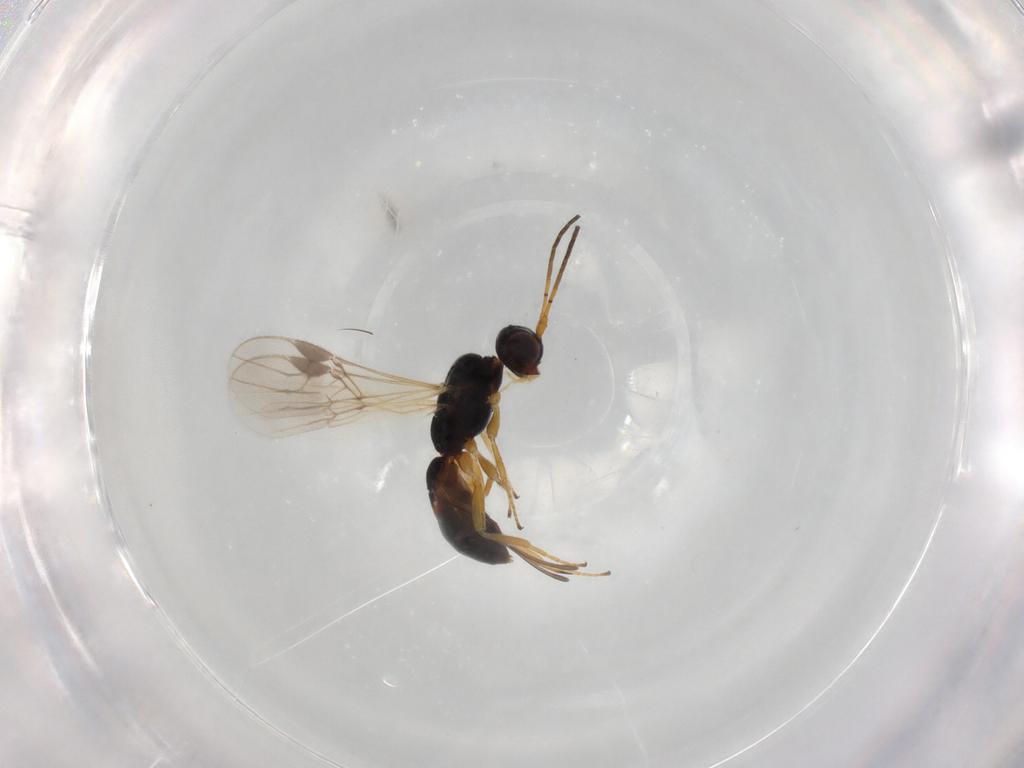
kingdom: Animalia
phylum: Arthropoda
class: Insecta
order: Hymenoptera
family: Braconidae
